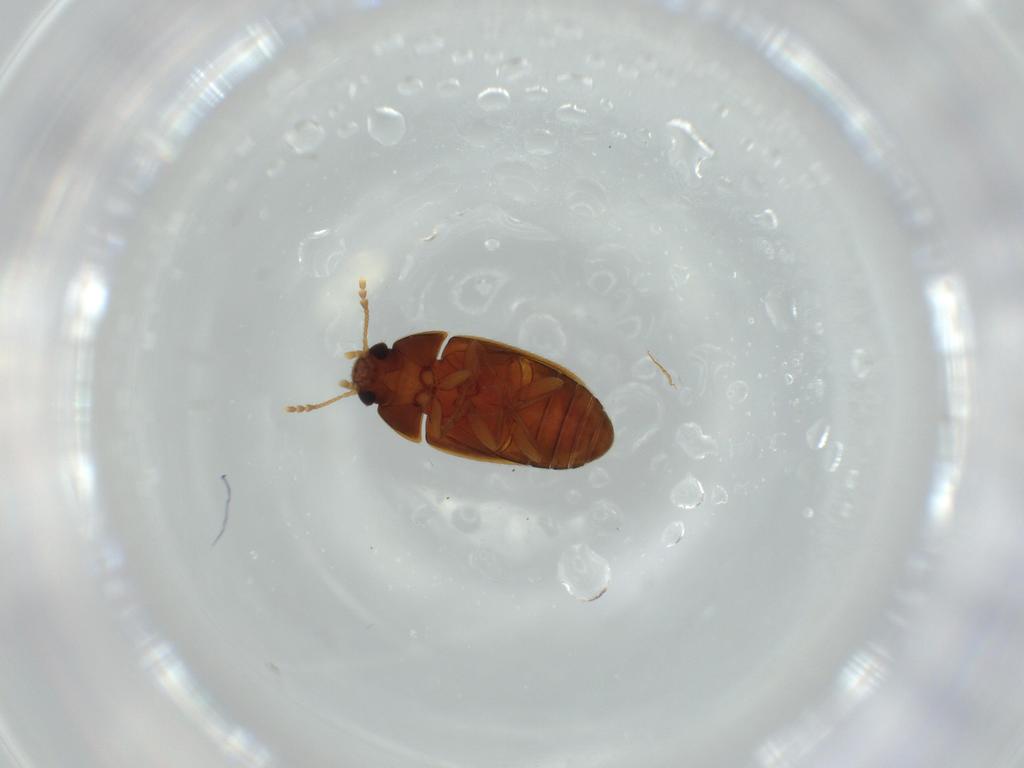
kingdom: Animalia
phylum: Arthropoda
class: Insecta
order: Coleoptera
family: Mycetophagidae
